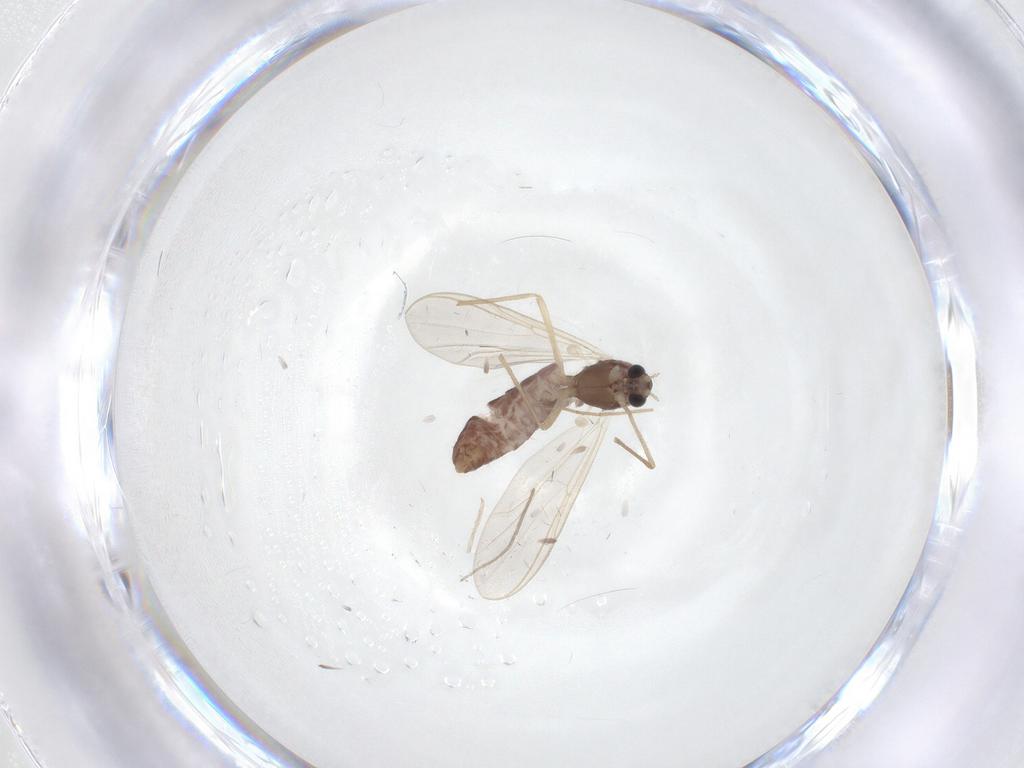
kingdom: Animalia
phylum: Arthropoda
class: Insecta
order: Diptera
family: Chironomidae
